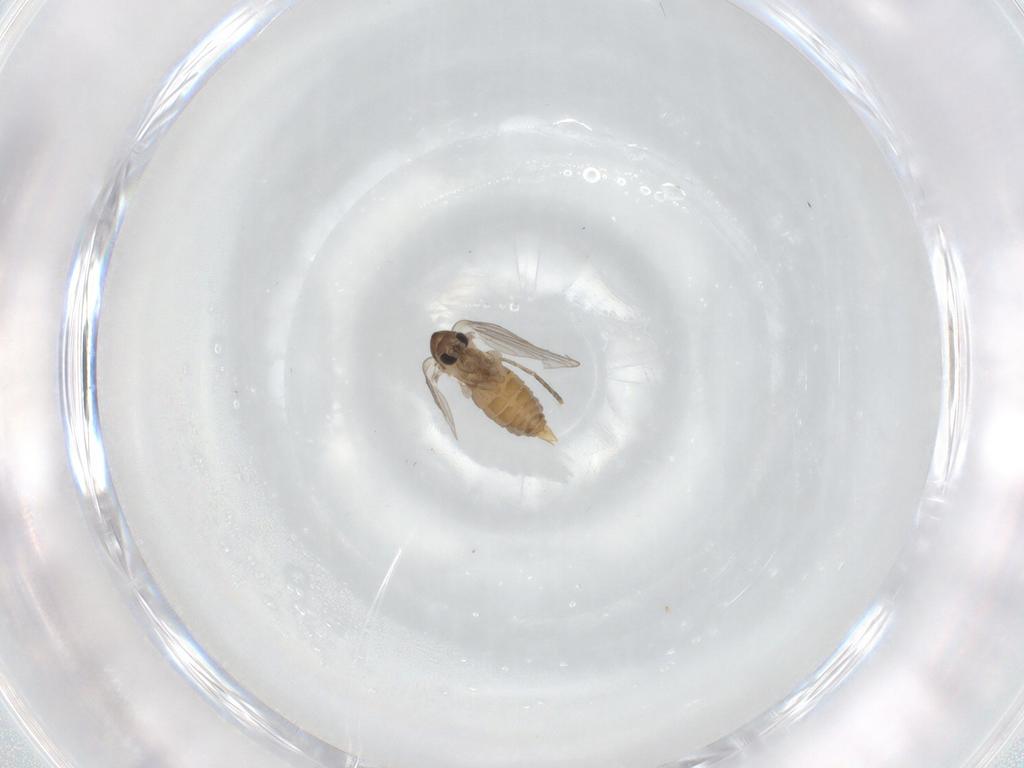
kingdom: Animalia
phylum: Arthropoda
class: Insecta
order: Diptera
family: Cecidomyiidae
